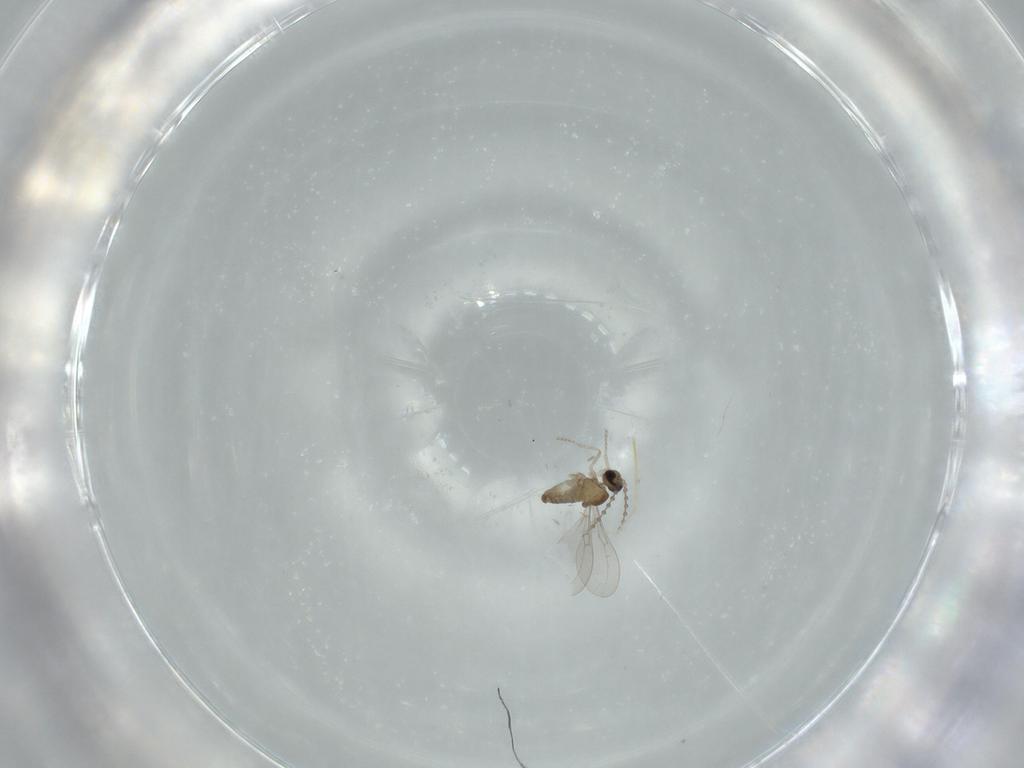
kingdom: Animalia
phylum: Arthropoda
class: Insecta
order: Diptera
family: Cecidomyiidae
